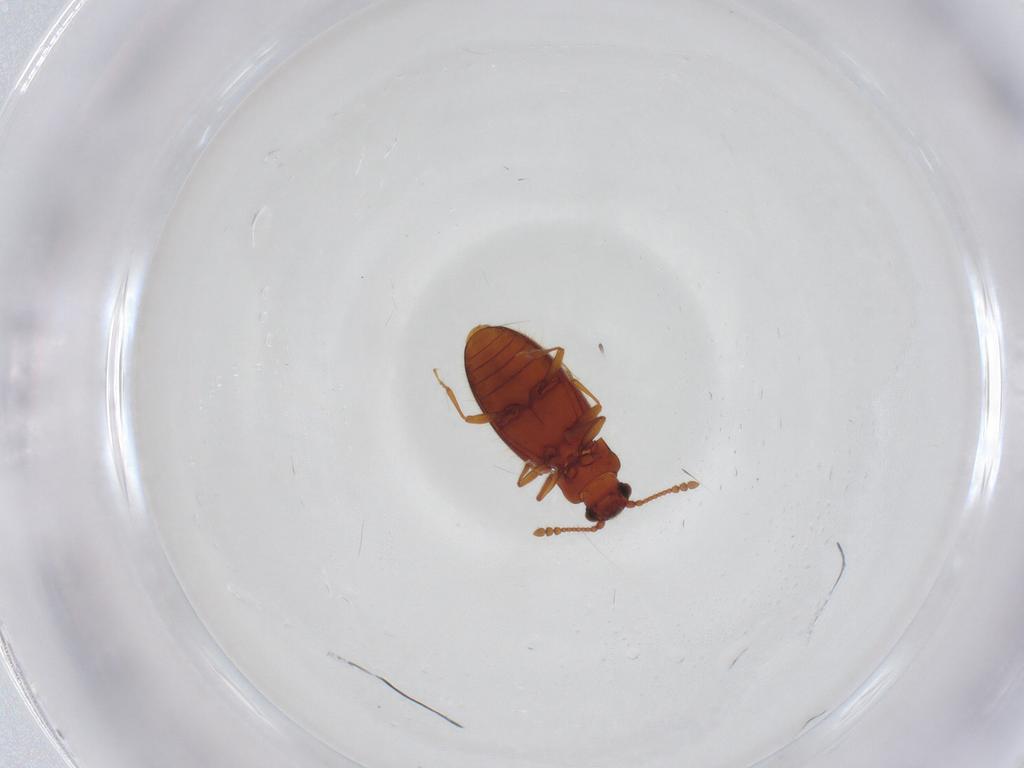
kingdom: Animalia
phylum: Arthropoda
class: Insecta
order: Coleoptera
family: Cryptophagidae
